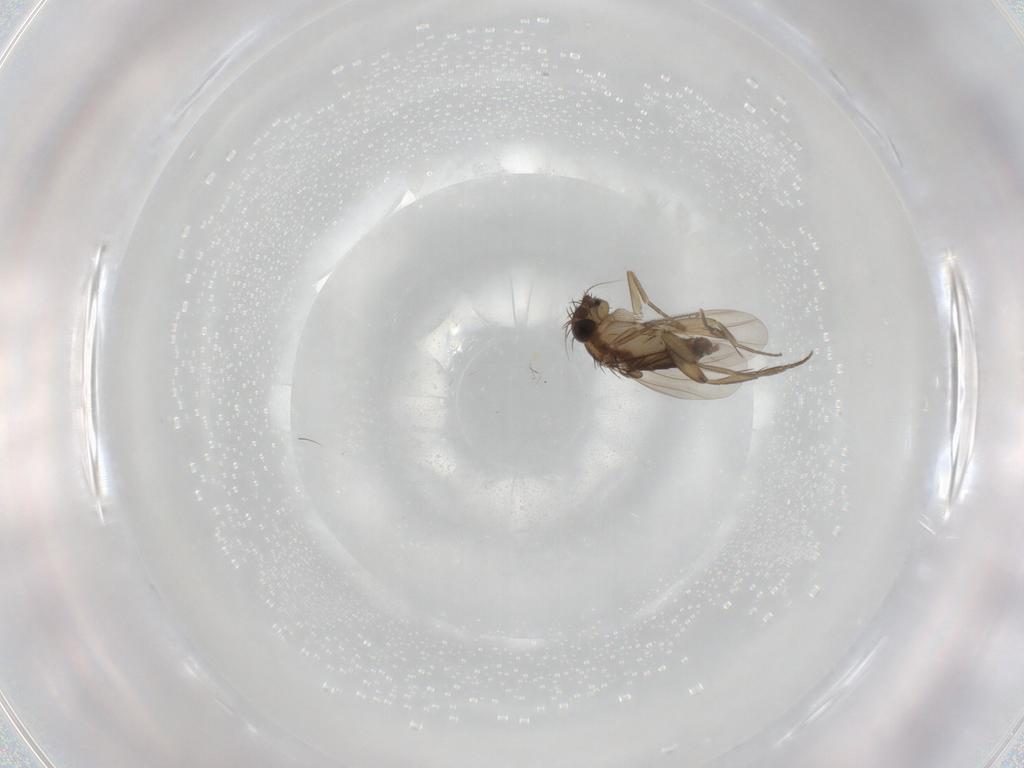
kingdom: Animalia
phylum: Arthropoda
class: Insecta
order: Diptera
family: Phoridae
